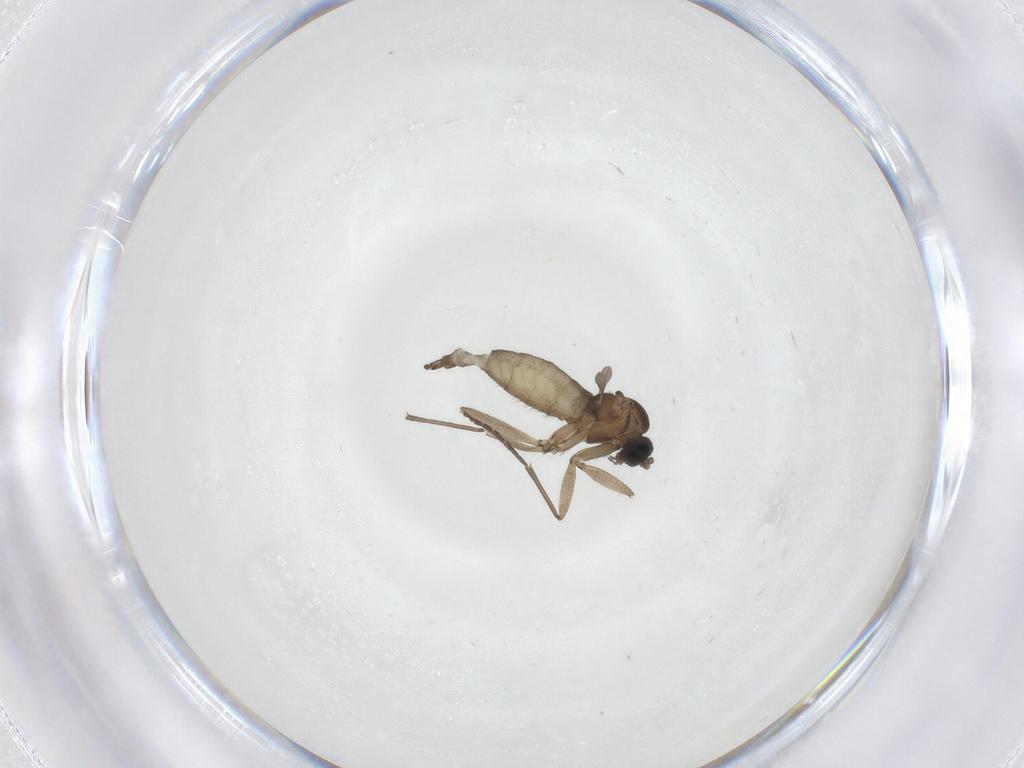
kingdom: Animalia
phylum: Arthropoda
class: Insecta
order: Diptera
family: Sciaridae
